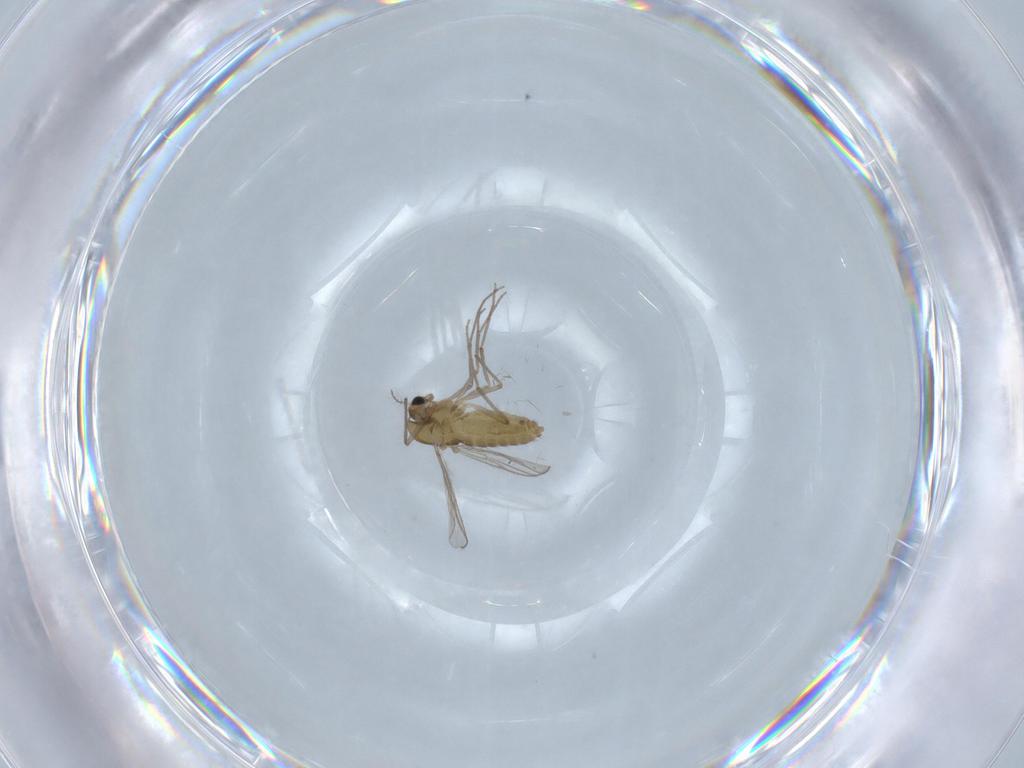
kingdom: Animalia
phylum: Arthropoda
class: Insecta
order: Diptera
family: Chironomidae
